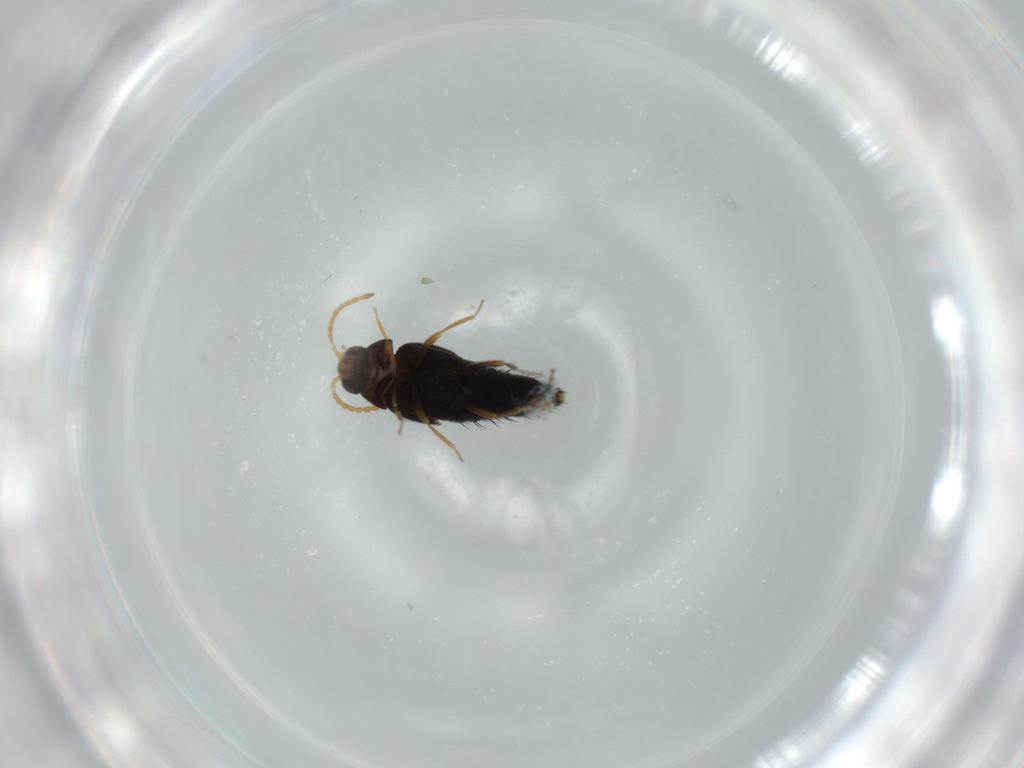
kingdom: Animalia
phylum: Arthropoda
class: Insecta
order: Coleoptera
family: Staphylinidae
